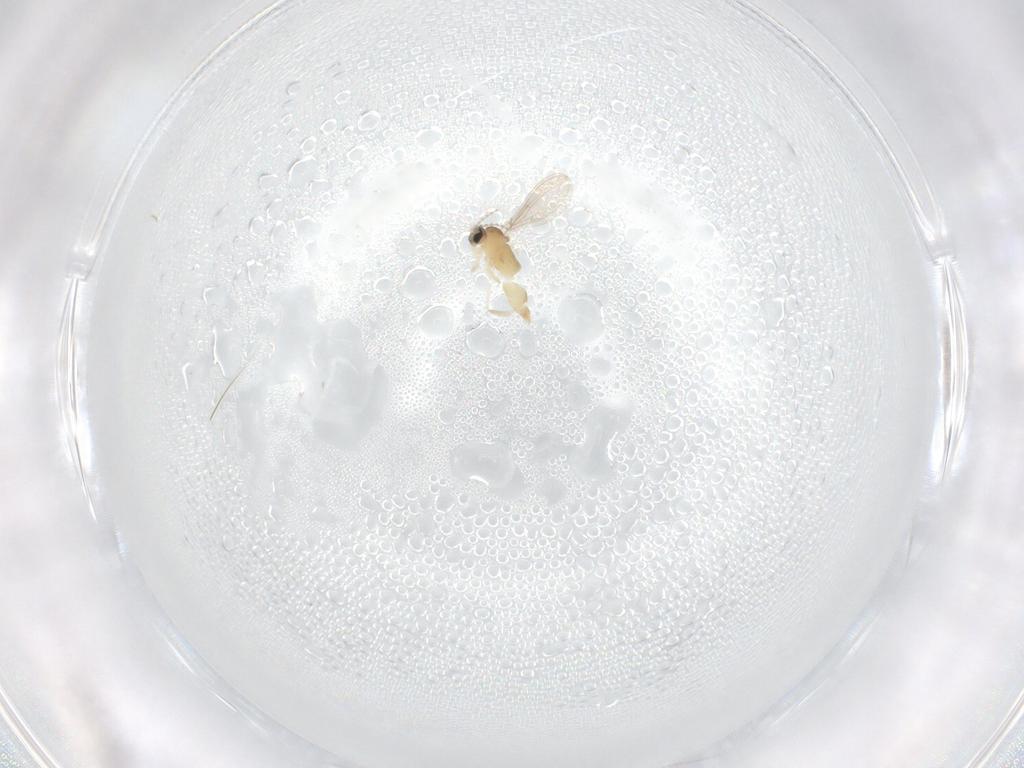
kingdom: Animalia
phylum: Arthropoda
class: Insecta
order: Diptera
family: Cecidomyiidae
